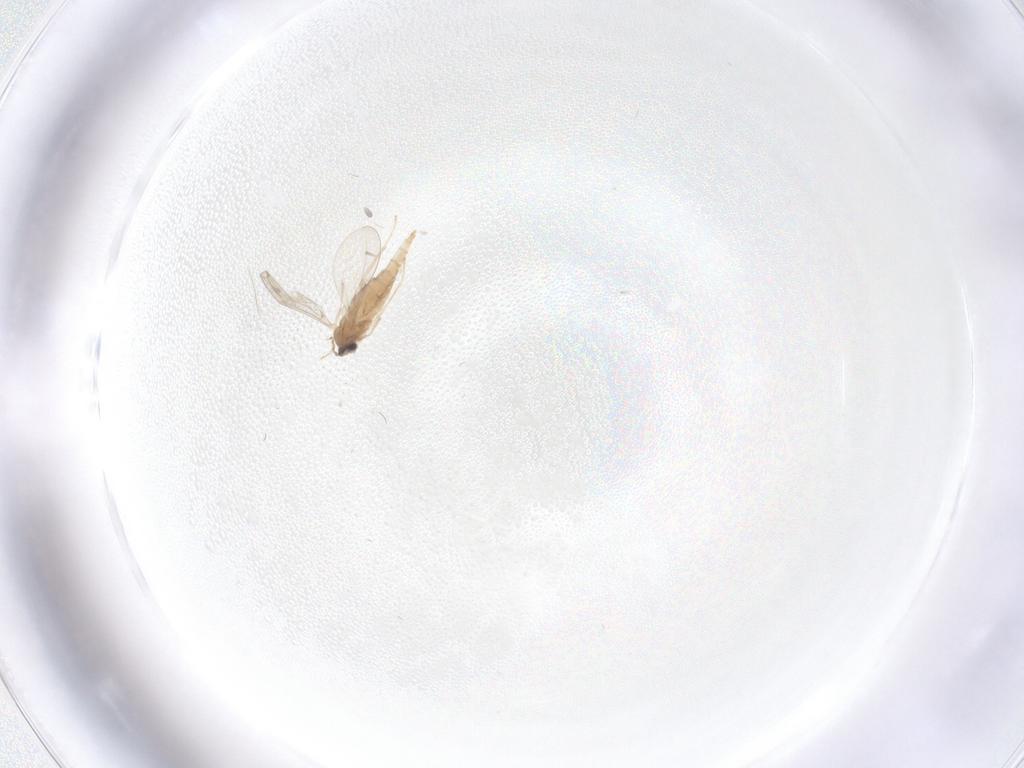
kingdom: Animalia
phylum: Arthropoda
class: Insecta
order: Diptera
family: Cecidomyiidae
